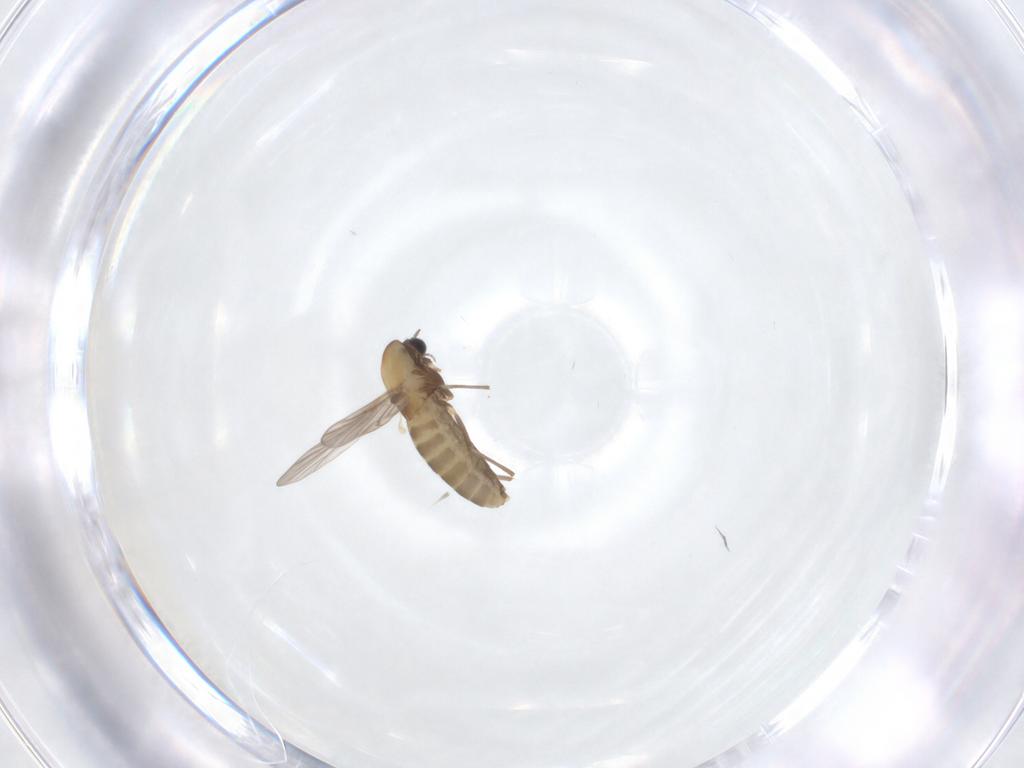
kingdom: Animalia
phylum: Arthropoda
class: Insecta
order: Diptera
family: Chironomidae
